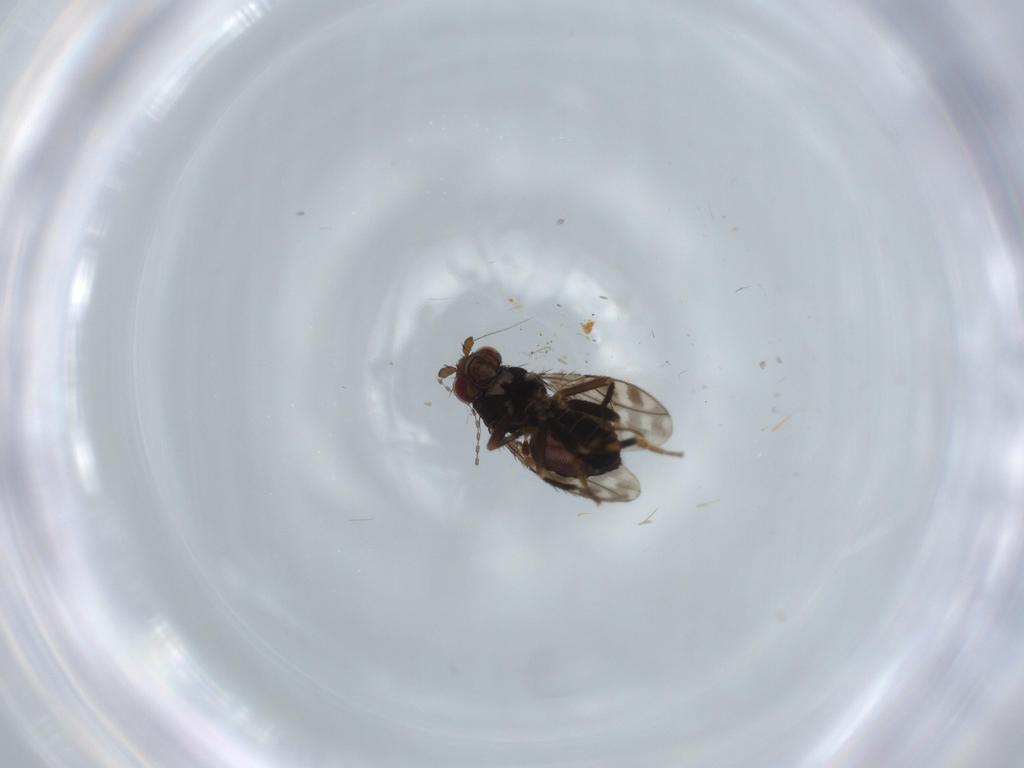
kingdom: Animalia
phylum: Arthropoda
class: Insecta
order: Diptera
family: Sphaeroceridae
